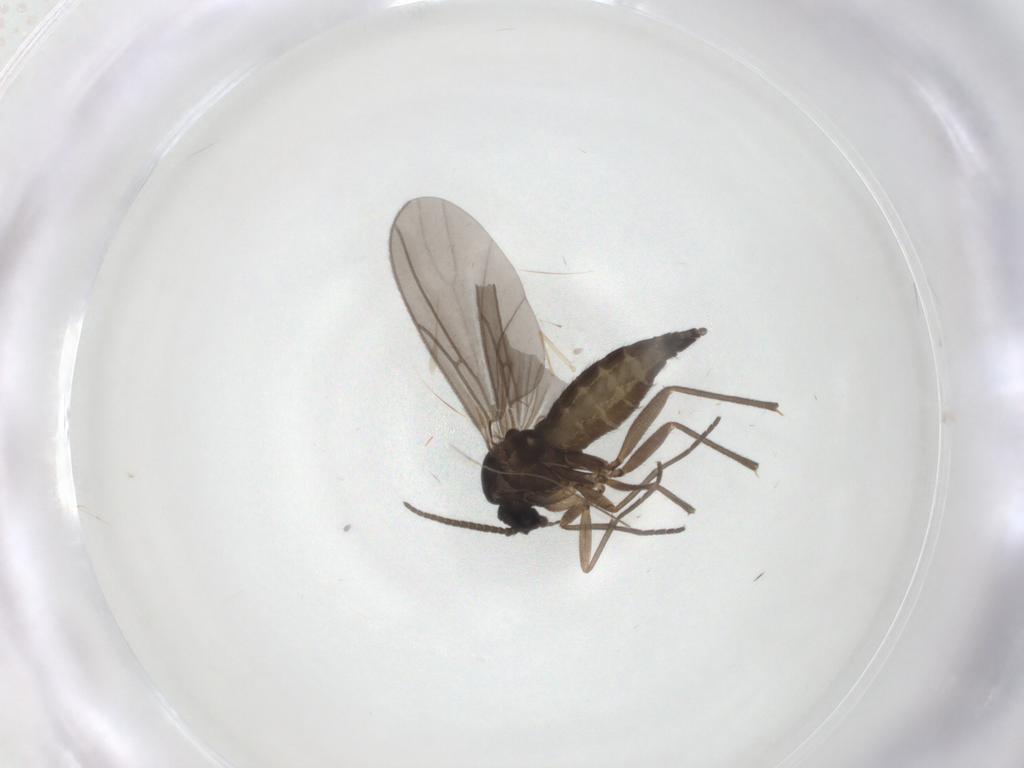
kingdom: Animalia
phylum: Arthropoda
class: Insecta
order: Diptera
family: Sciaridae
